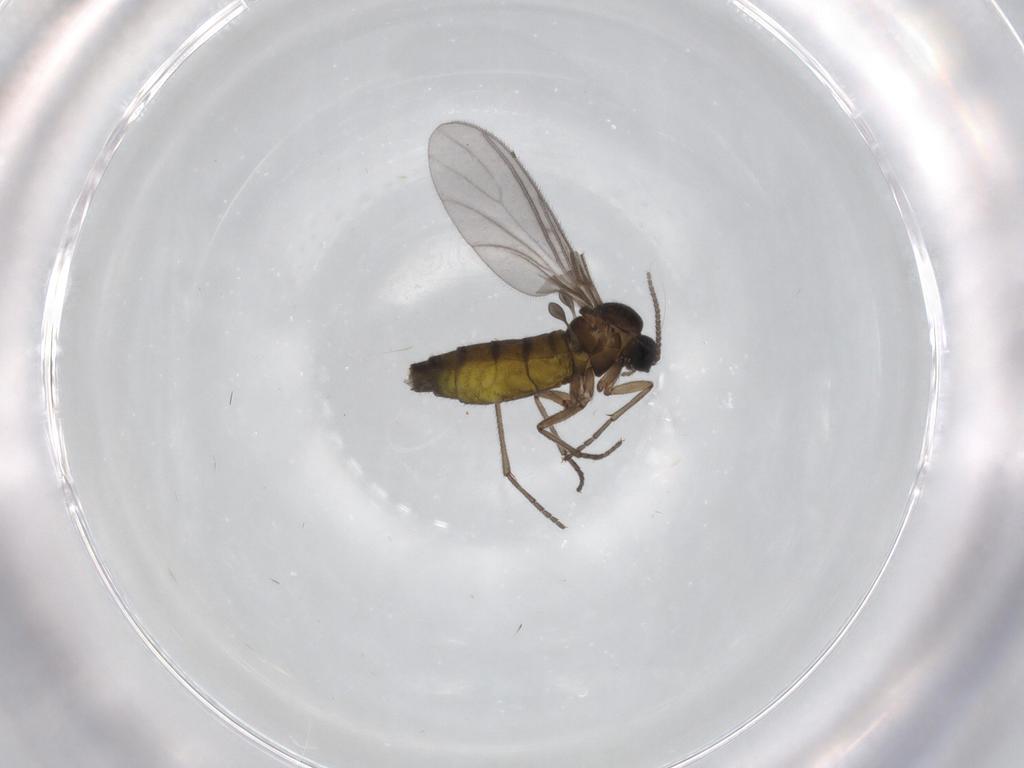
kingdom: Animalia
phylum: Arthropoda
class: Insecta
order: Diptera
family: Sciaridae
